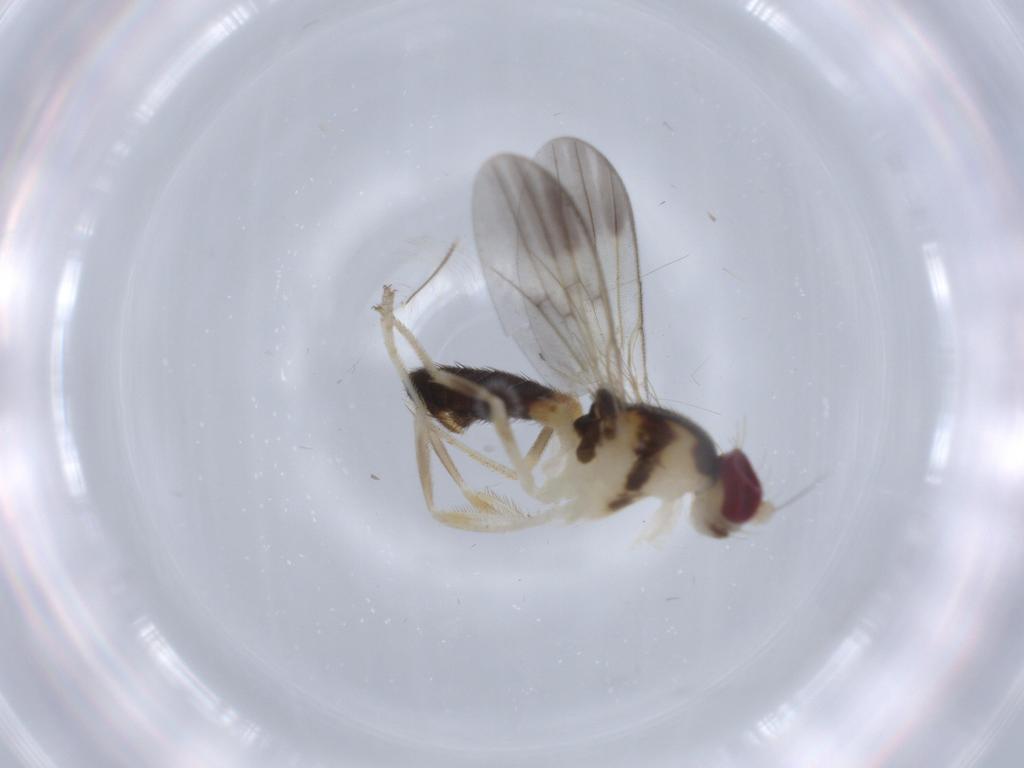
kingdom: Animalia
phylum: Arthropoda
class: Insecta
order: Diptera
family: Clusiidae
